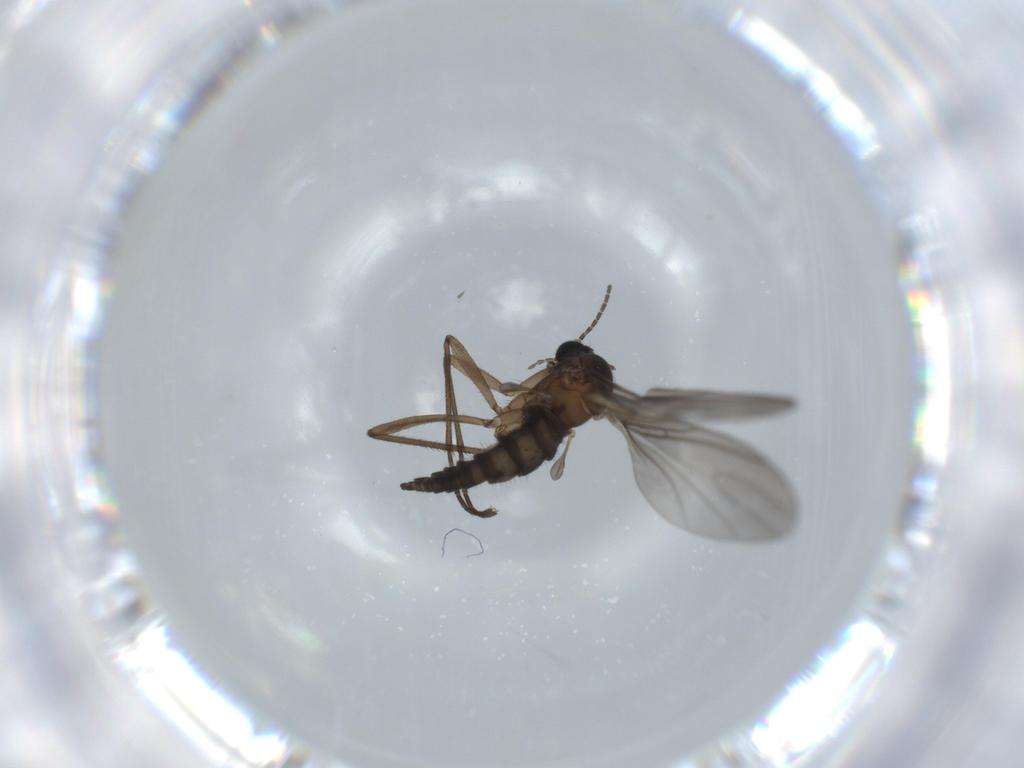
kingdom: Animalia
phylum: Arthropoda
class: Insecta
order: Diptera
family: Sciaridae
